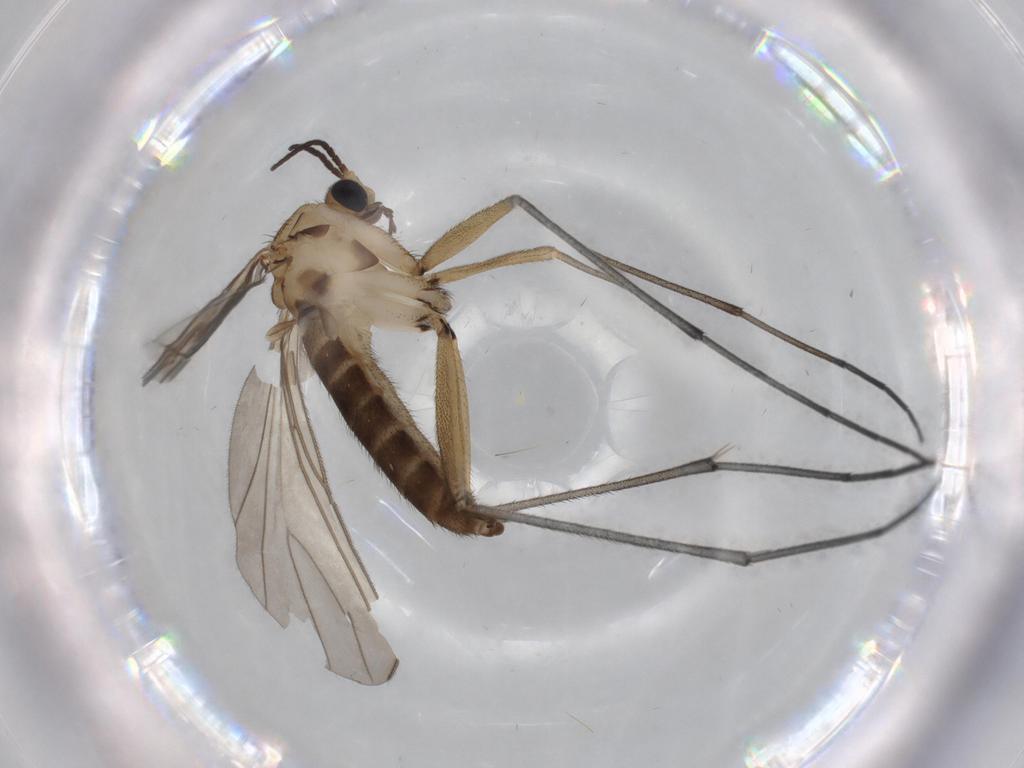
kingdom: Animalia
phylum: Arthropoda
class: Insecta
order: Diptera
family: Sciaridae
